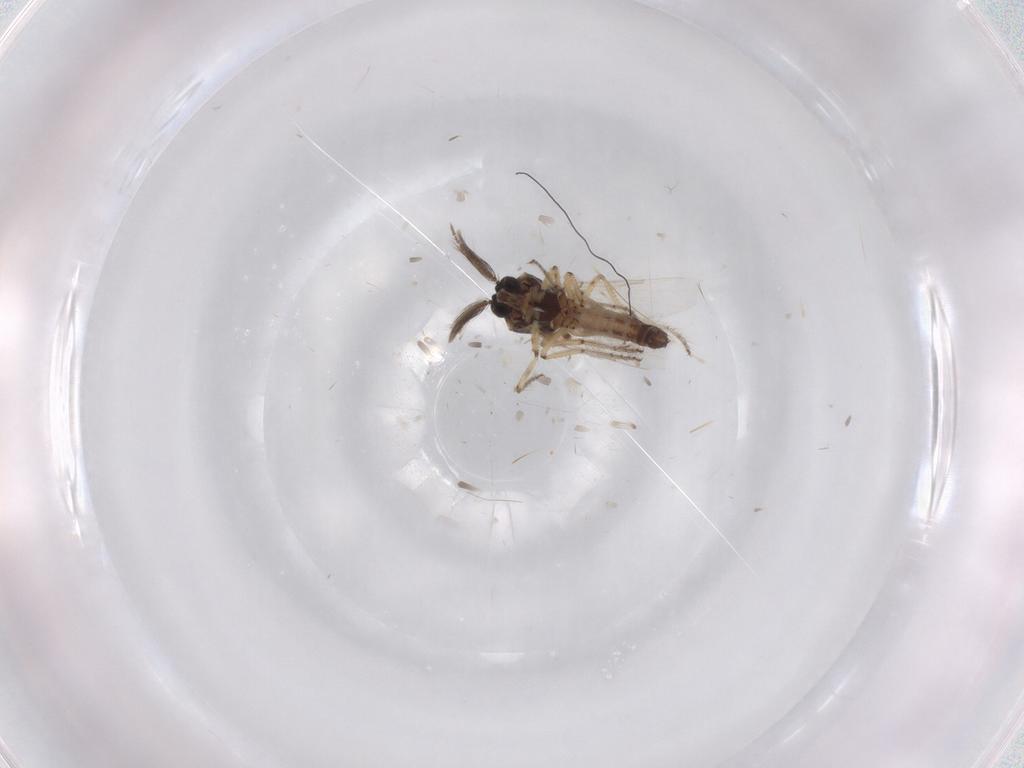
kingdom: Animalia
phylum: Arthropoda
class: Insecta
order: Diptera
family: Ceratopogonidae
